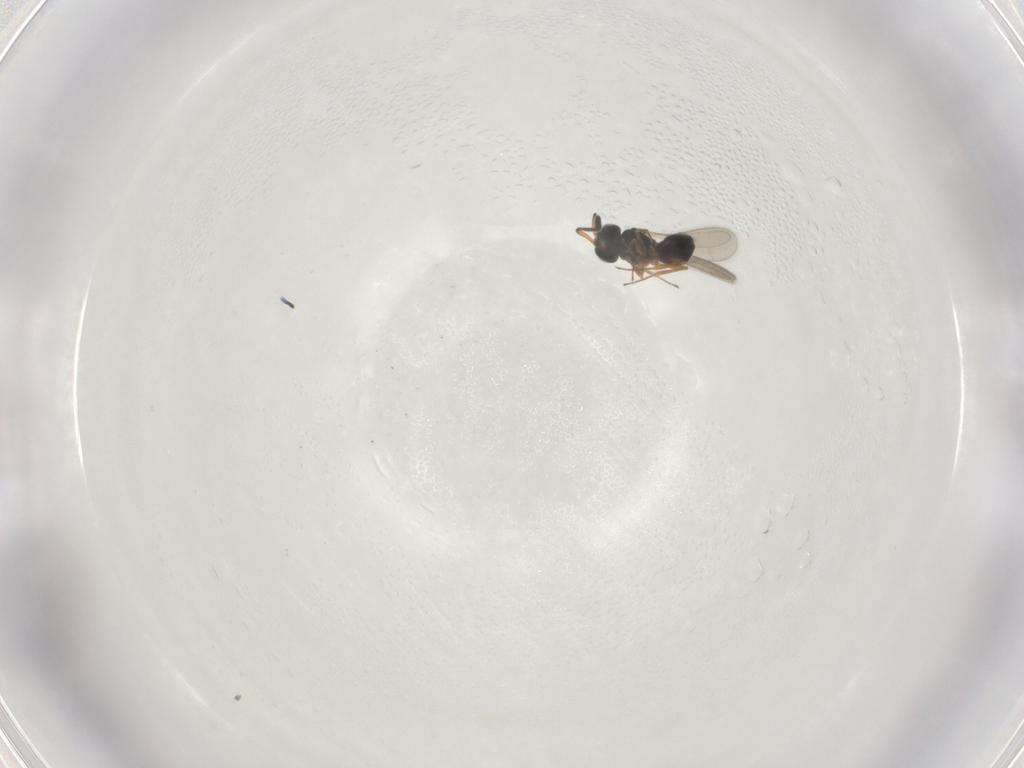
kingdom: Animalia
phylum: Arthropoda
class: Insecta
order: Hymenoptera
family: Scelionidae
